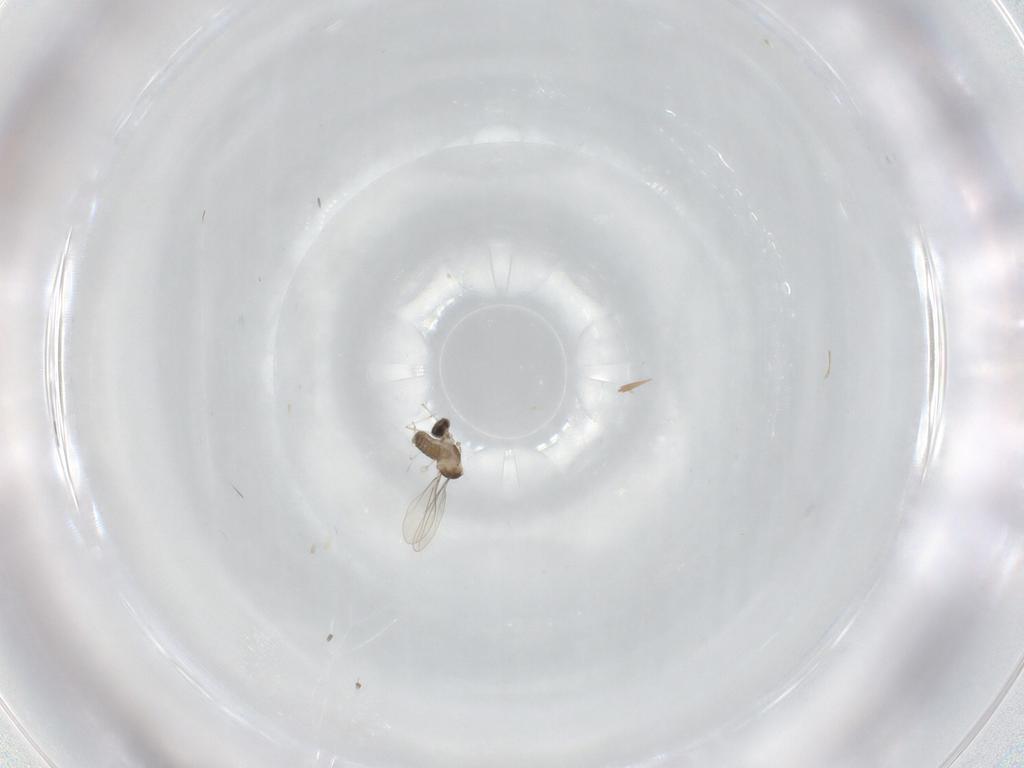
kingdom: Animalia
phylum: Arthropoda
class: Insecta
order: Diptera
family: Cecidomyiidae
